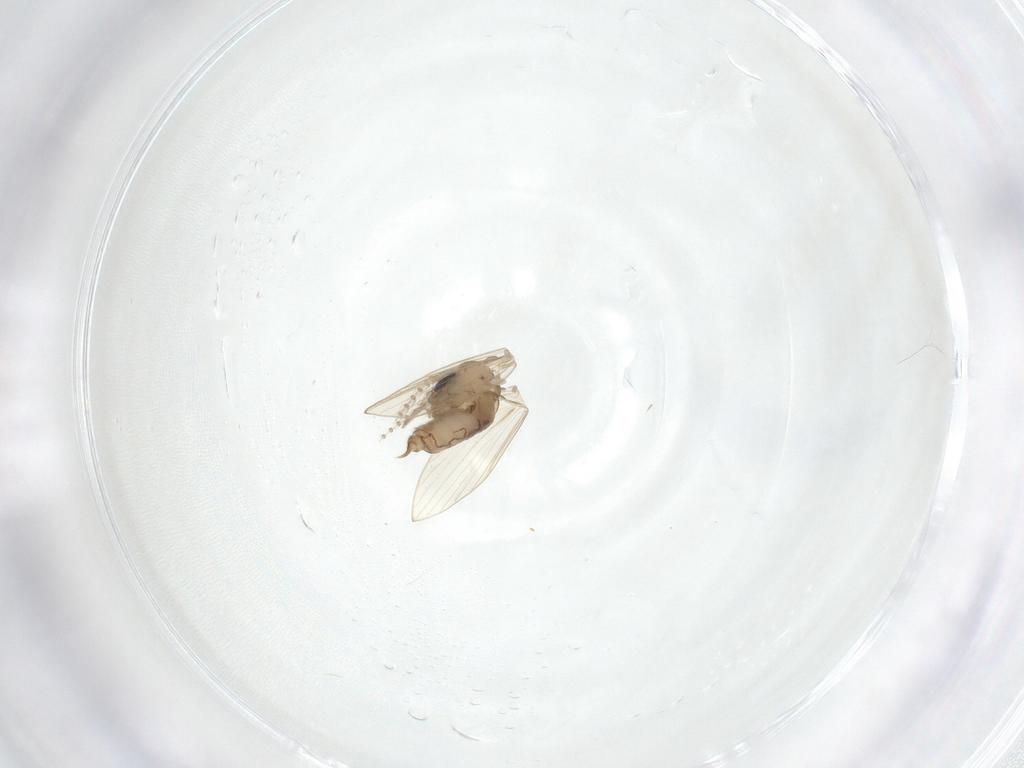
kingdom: Animalia
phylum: Arthropoda
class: Insecta
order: Diptera
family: Psychodidae
